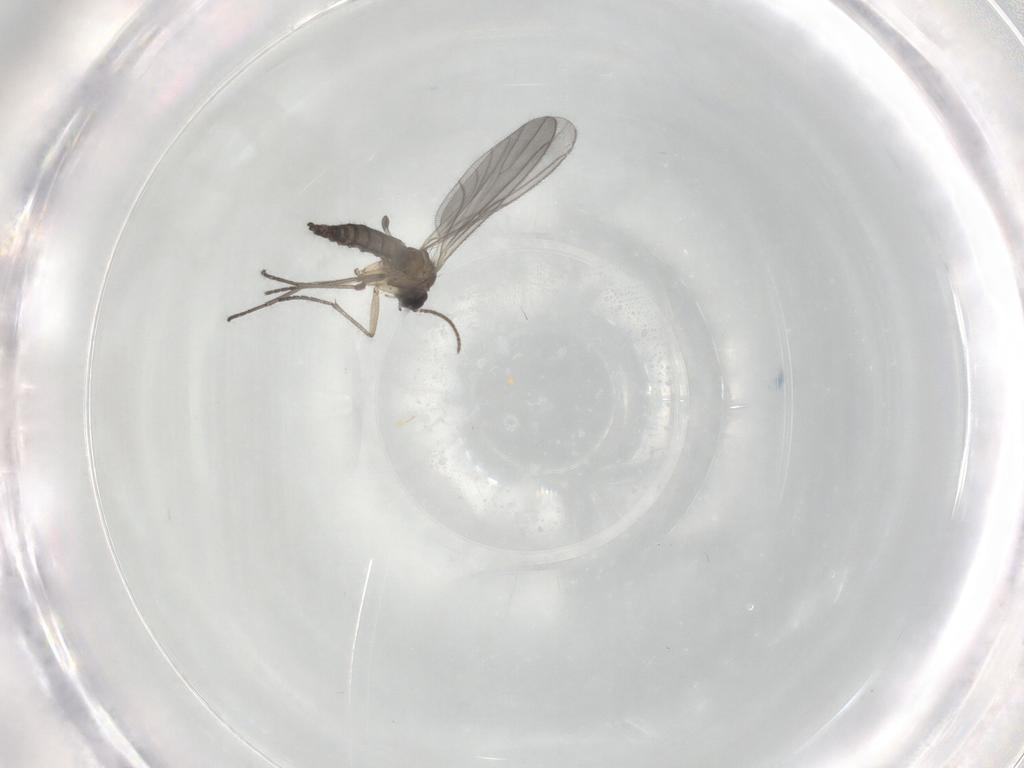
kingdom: Animalia
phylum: Arthropoda
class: Insecta
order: Diptera
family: Sciaridae
